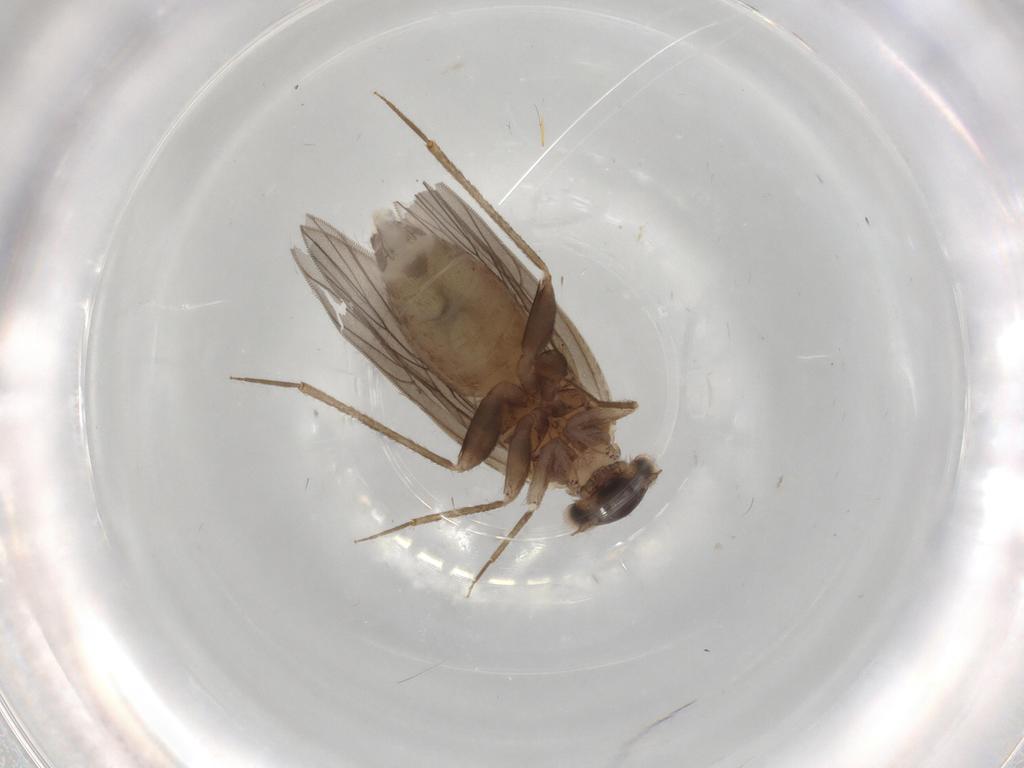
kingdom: Animalia
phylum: Arthropoda
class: Insecta
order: Psocodea
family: Lepidopsocidae
